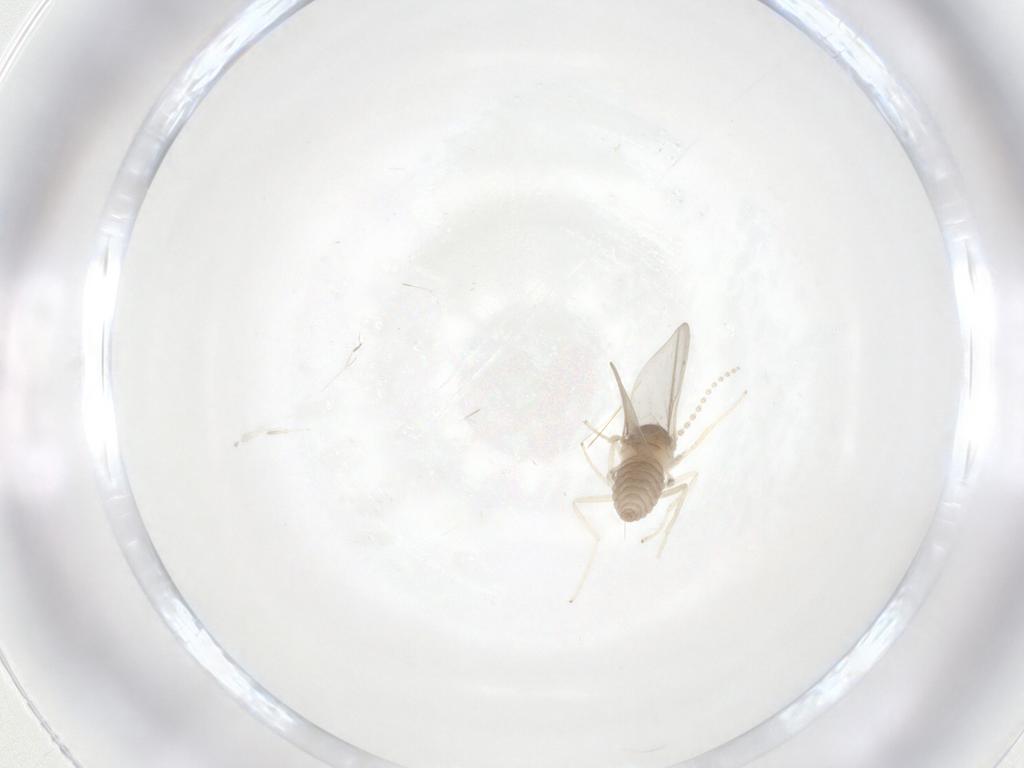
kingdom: Animalia
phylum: Arthropoda
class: Insecta
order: Diptera
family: Cecidomyiidae
